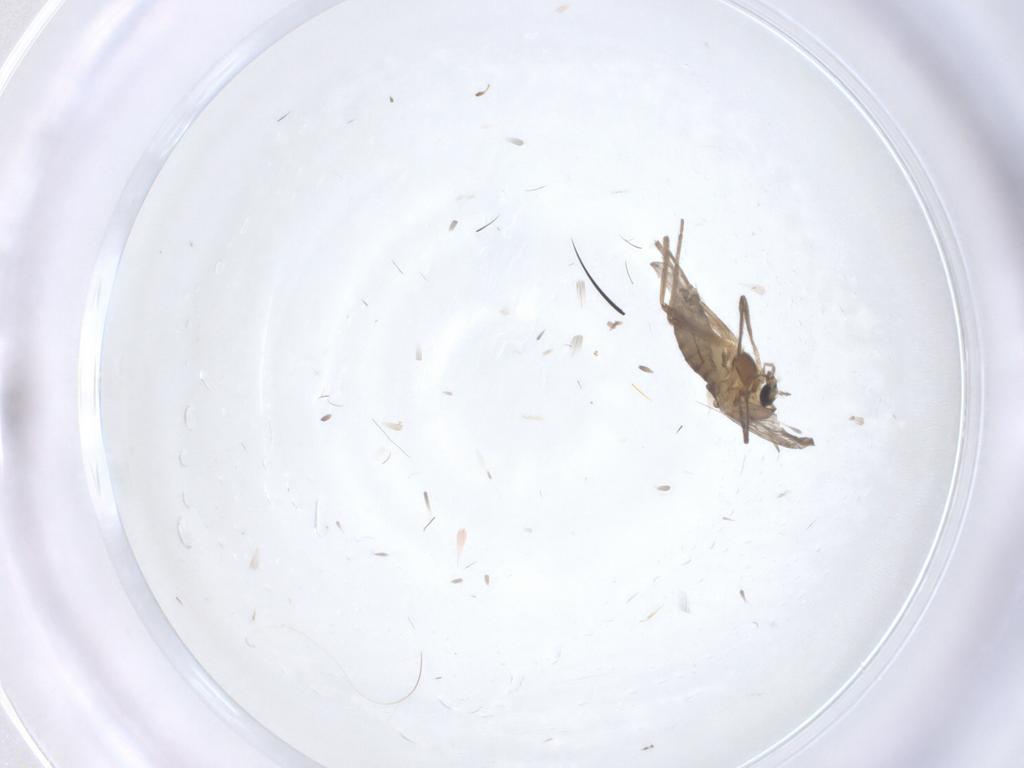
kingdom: Animalia
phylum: Arthropoda
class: Insecta
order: Diptera
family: Chironomidae
